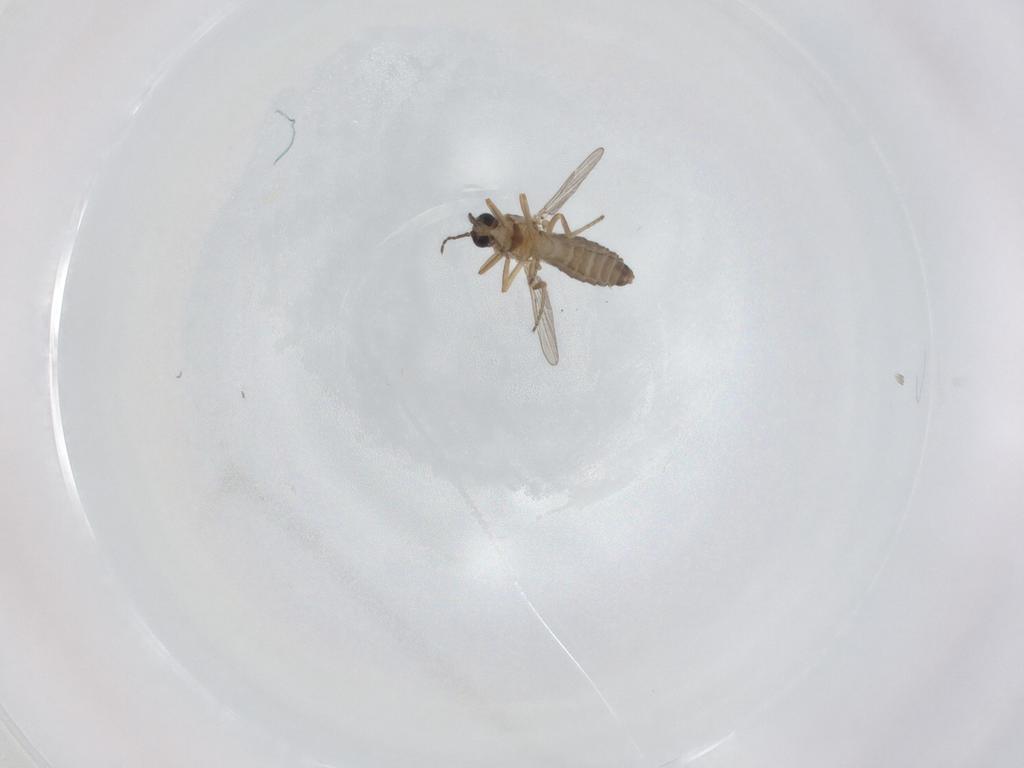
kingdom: Animalia
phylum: Arthropoda
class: Insecta
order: Diptera
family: Ceratopogonidae
